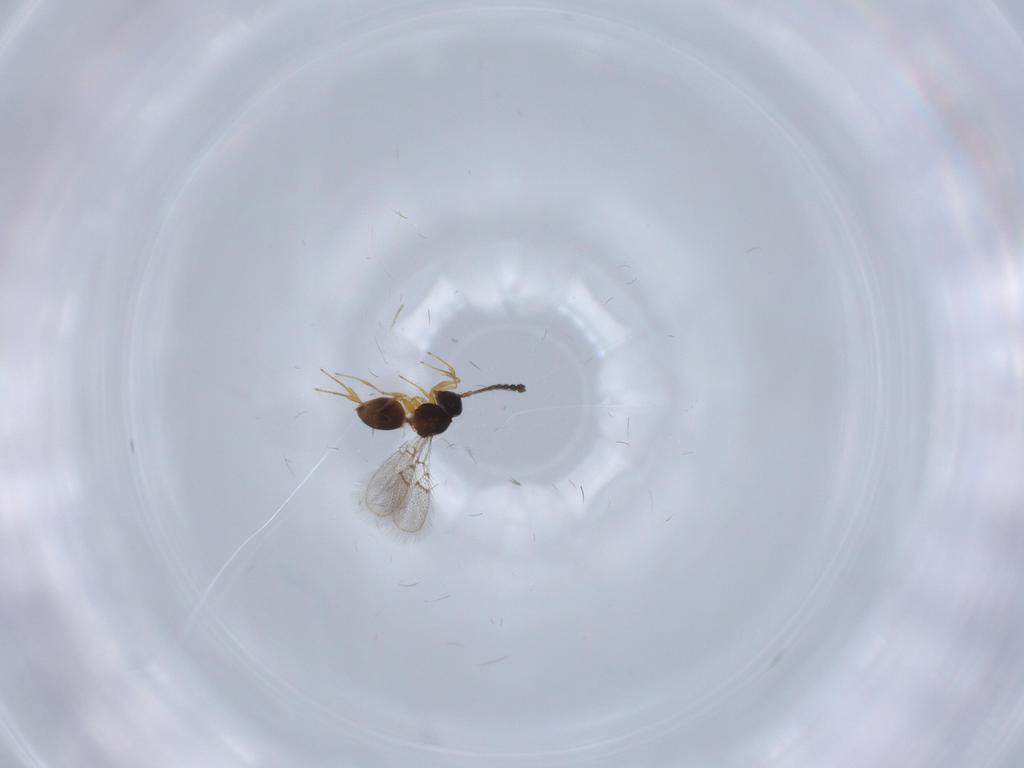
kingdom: Animalia
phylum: Arthropoda
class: Insecta
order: Hymenoptera
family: Figitidae
